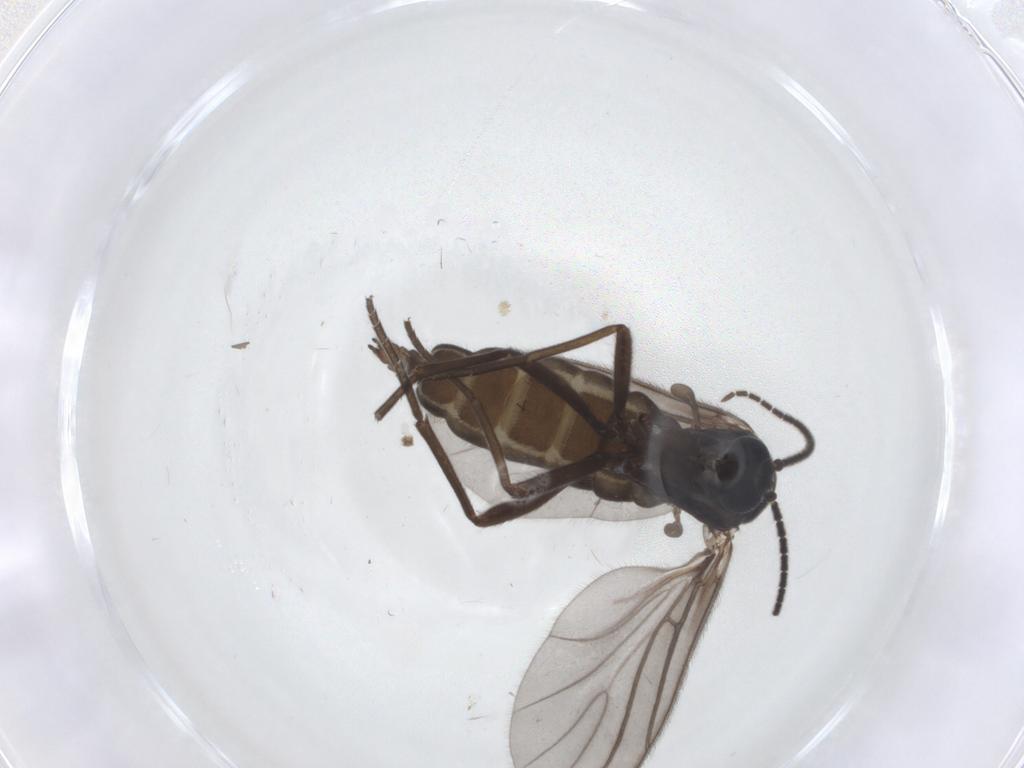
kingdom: Animalia
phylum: Arthropoda
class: Insecta
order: Diptera
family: Sciaridae
